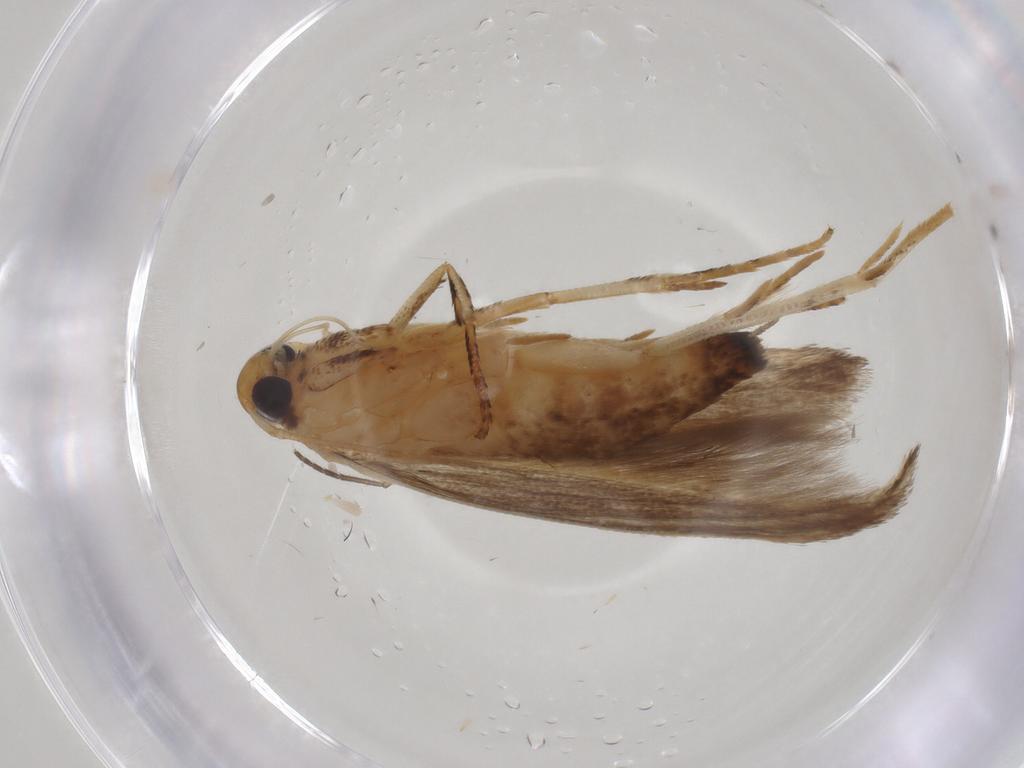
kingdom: Animalia
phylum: Arthropoda
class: Insecta
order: Lepidoptera
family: Momphidae
